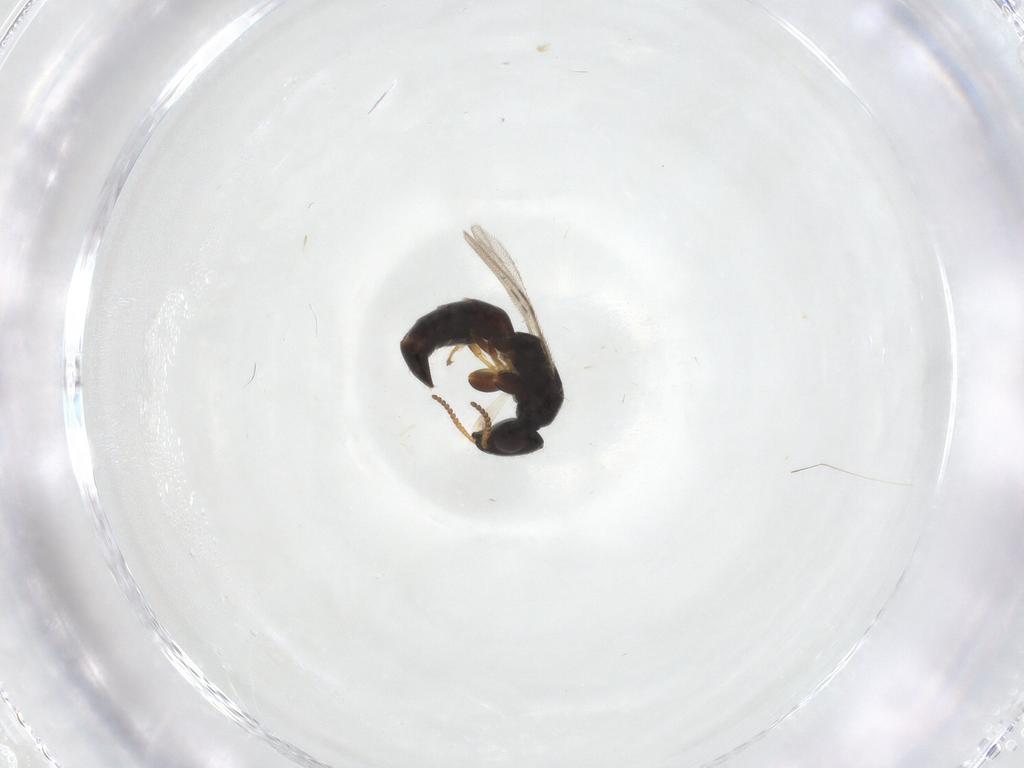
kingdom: Animalia
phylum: Arthropoda
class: Insecta
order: Hymenoptera
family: Bethylidae
